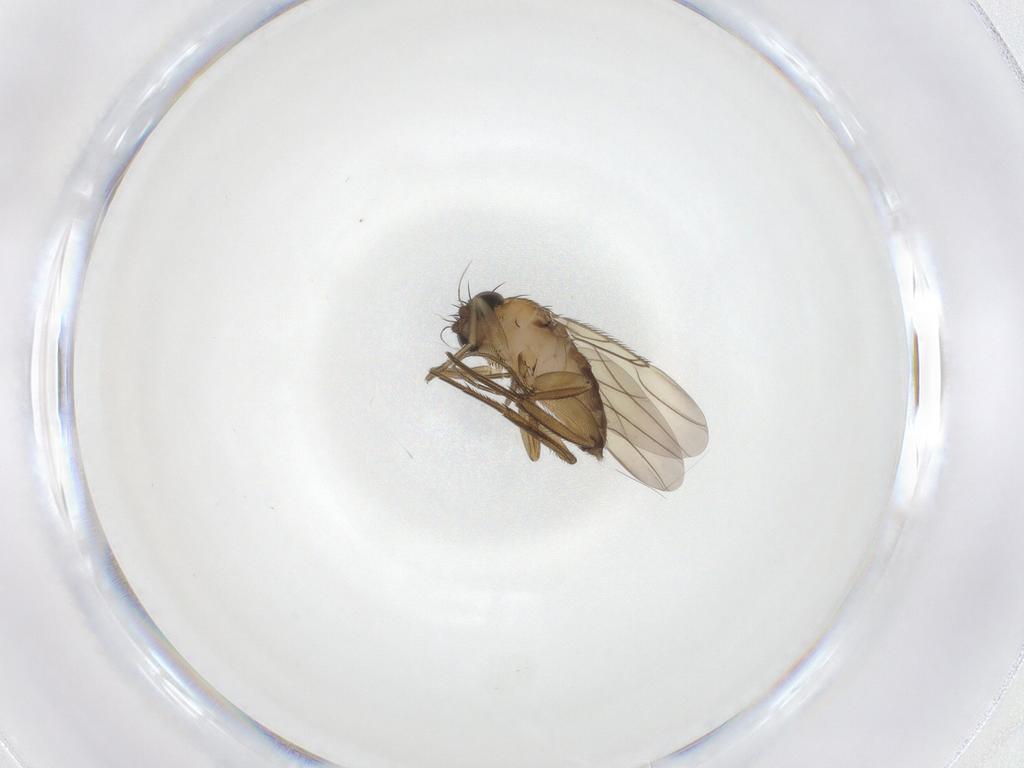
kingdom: Animalia
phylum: Arthropoda
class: Insecta
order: Diptera
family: Phoridae
